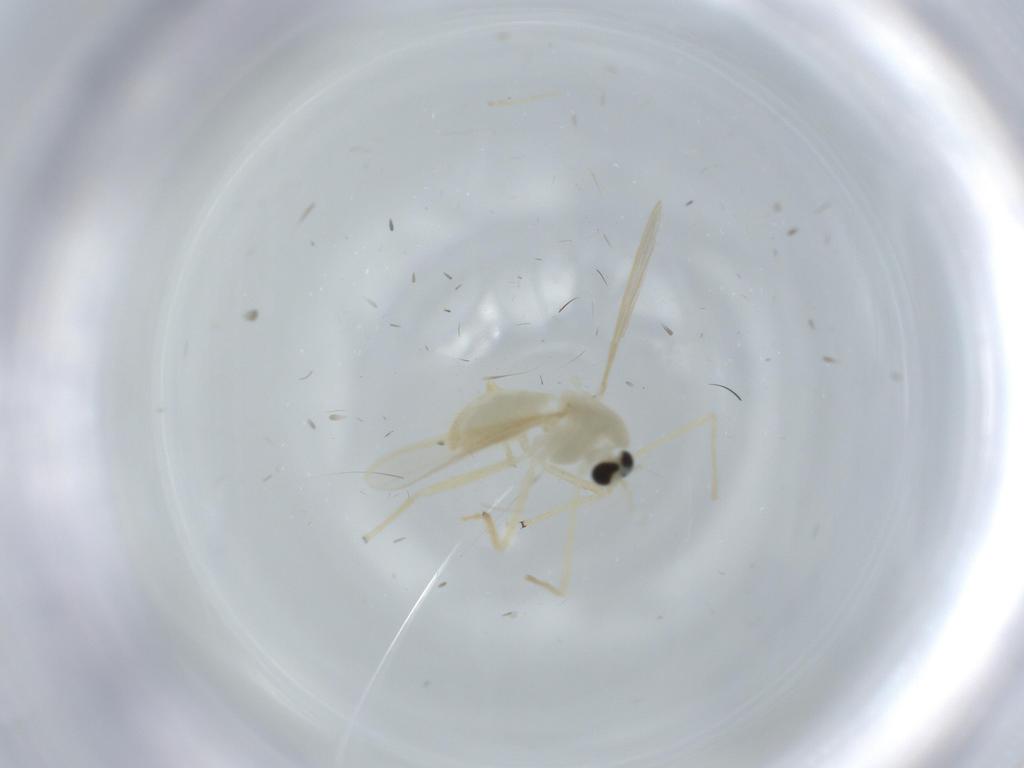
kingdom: Animalia
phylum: Arthropoda
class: Insecta
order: Diptera
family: Chironomidae
